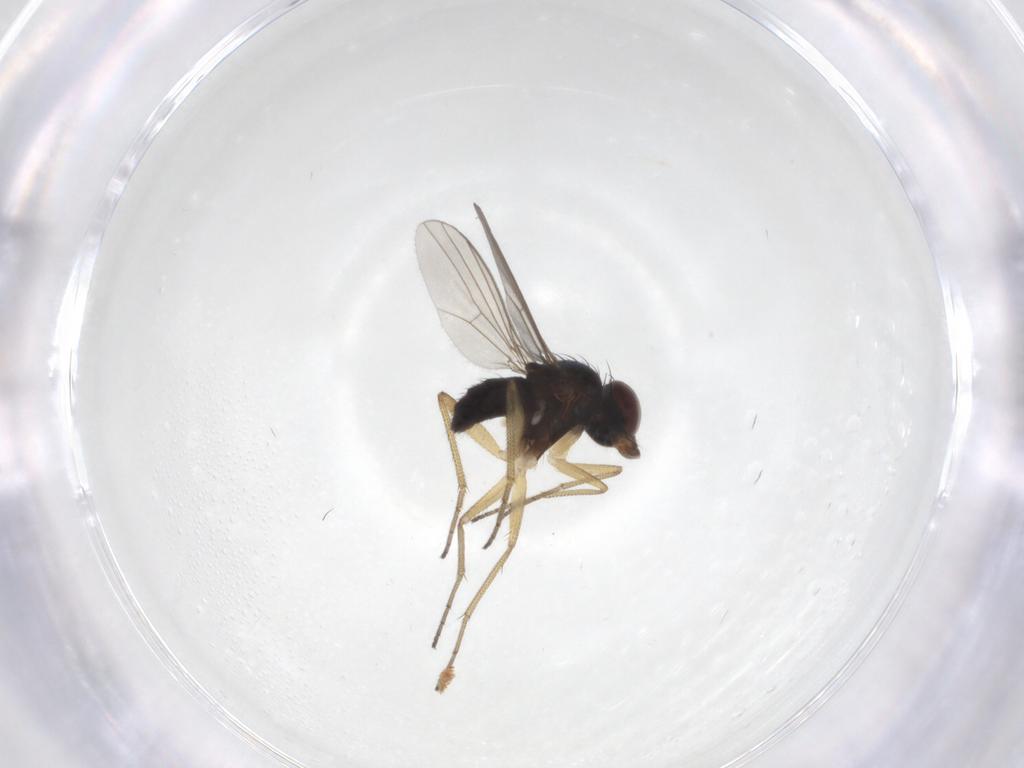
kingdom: Animalia
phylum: Arthropoda
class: Insecta
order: Diptera
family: Dolichopodidae
